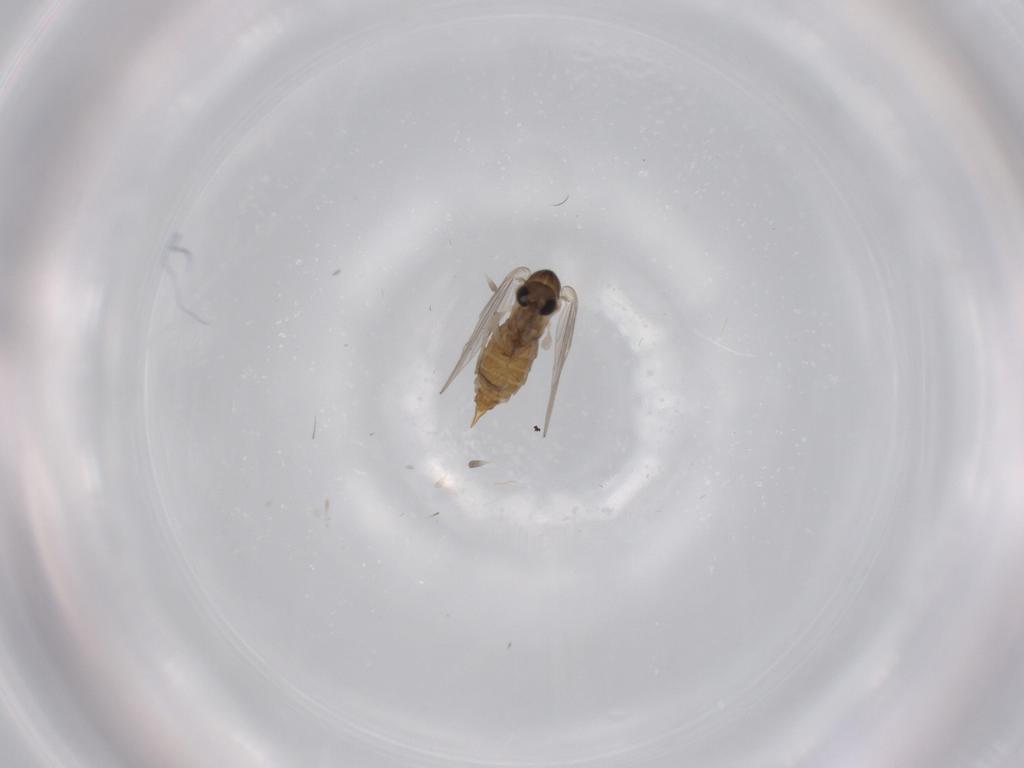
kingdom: Animalia
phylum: Arthropoda
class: Insecta
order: Diptera
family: Psychodidae
